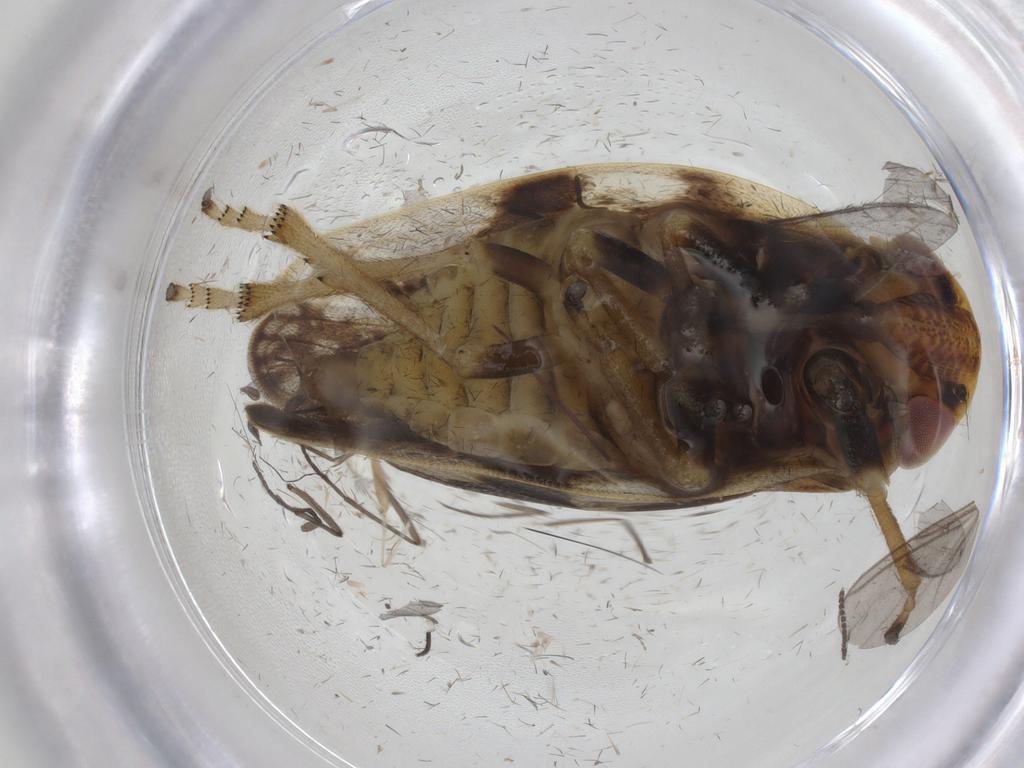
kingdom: Animalia
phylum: Arthropoda
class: Insecta
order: Hemiptera
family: Aphrophoridae
